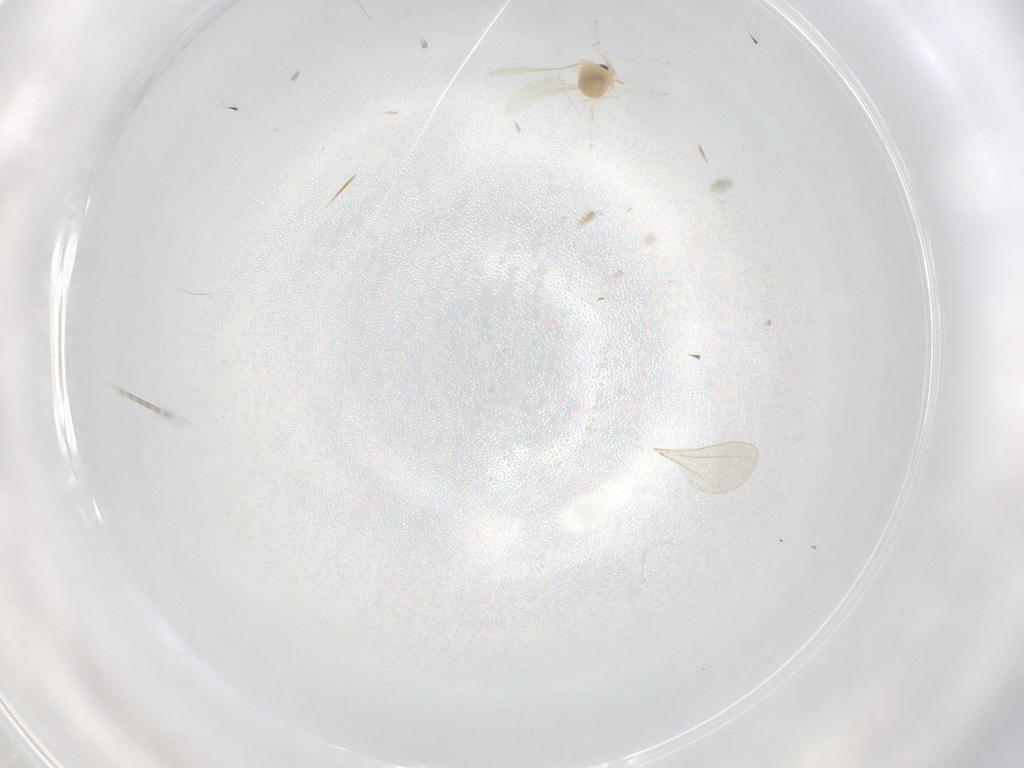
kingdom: Animalia
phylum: Arthropoda
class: Insecta
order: Diptera
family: Cecidomyiidae
